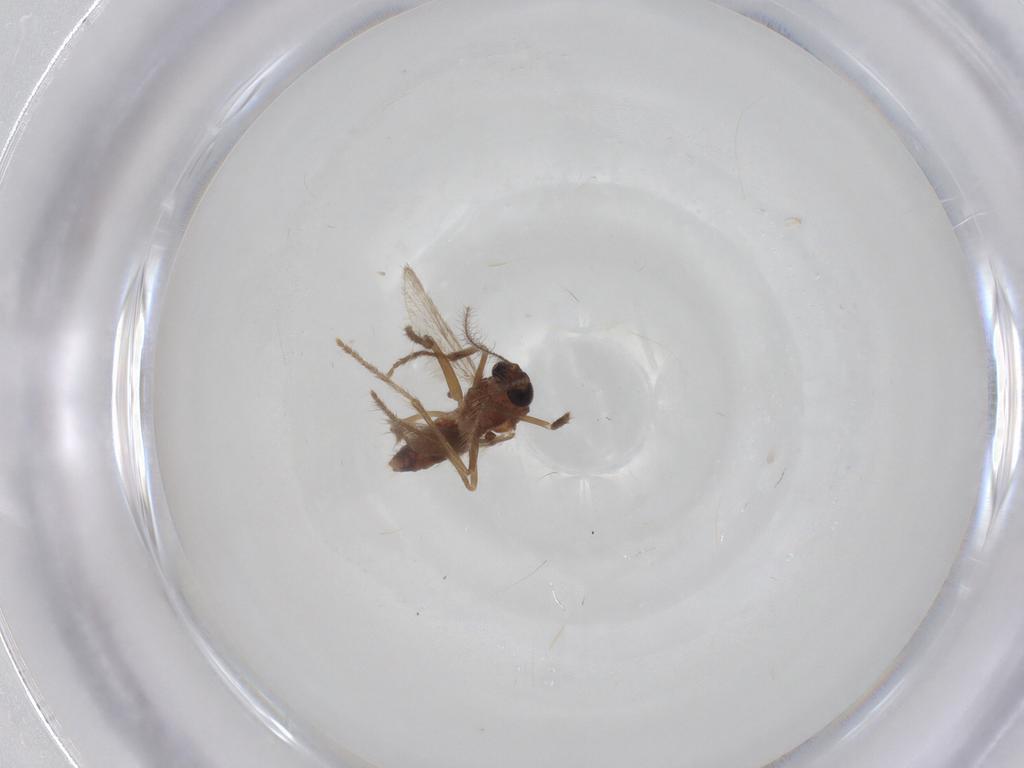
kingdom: Animalia
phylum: Arthropoda
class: Insecta
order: Diptera
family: Corethrellidae
